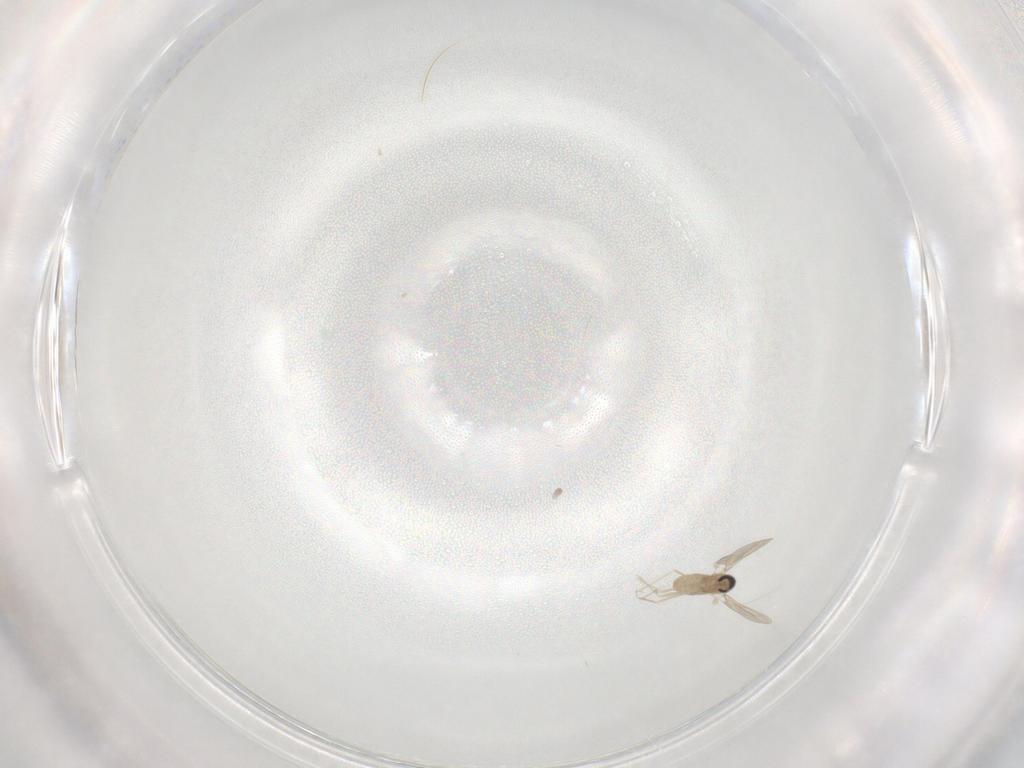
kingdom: Animalia
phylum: Arthropoda
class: Insecta
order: Diptera
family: Cecidomyiidae
